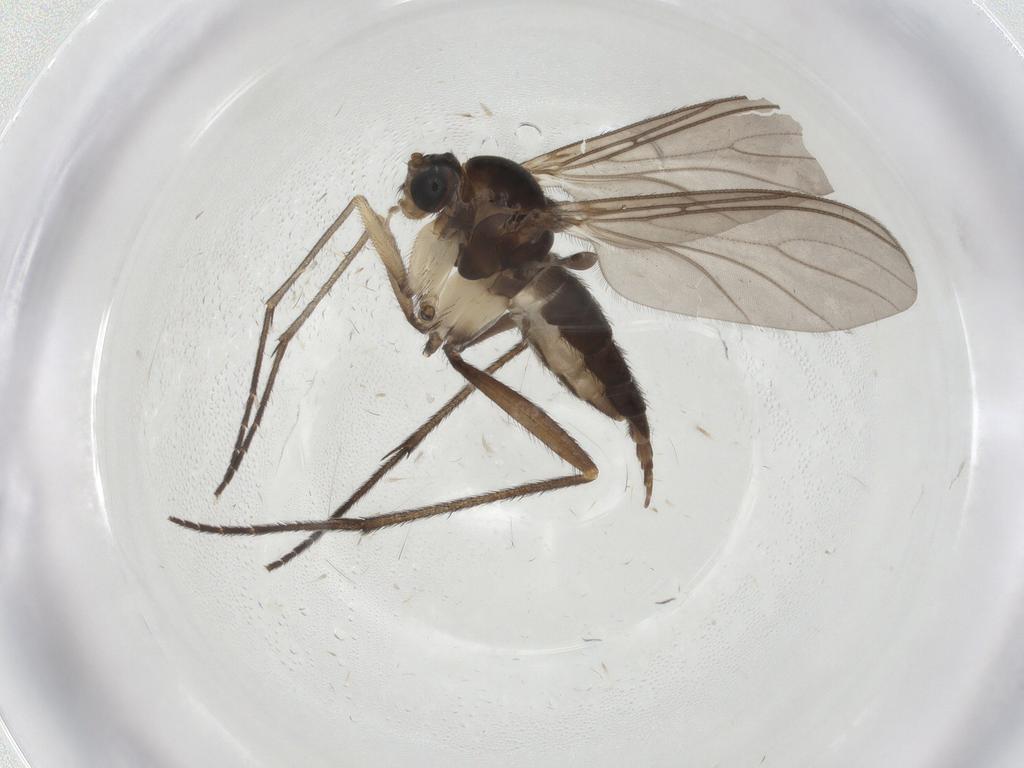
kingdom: Animalia
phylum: Arthropoda
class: Insecta
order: Diptera
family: Sciaridae
